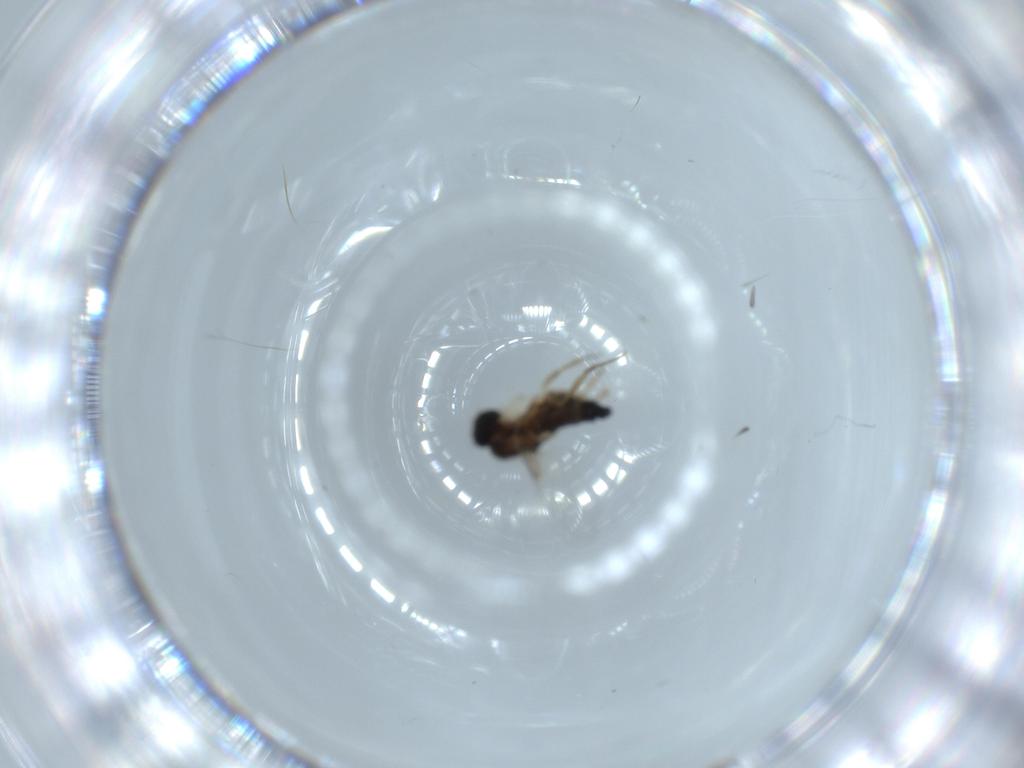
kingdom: Animalia
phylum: Arthropoda
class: Insecta
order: Diptera
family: Phoridae
